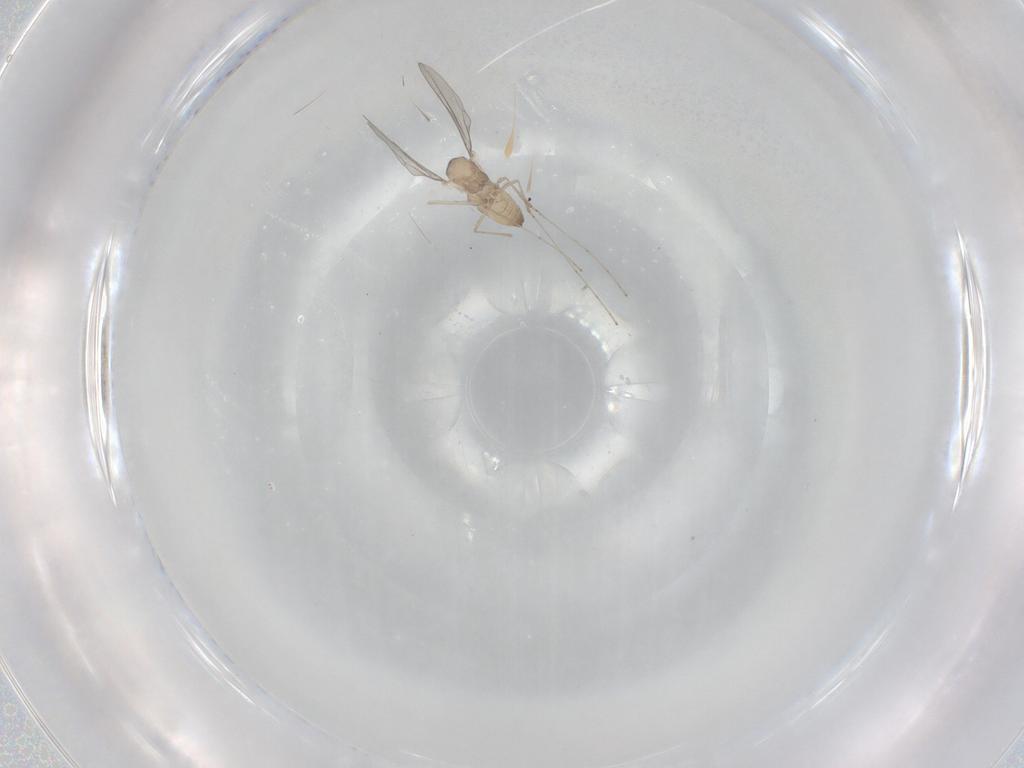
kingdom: Animalia
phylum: Arthropoda
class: Insecta
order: Diptera
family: Cecidomyiidae
